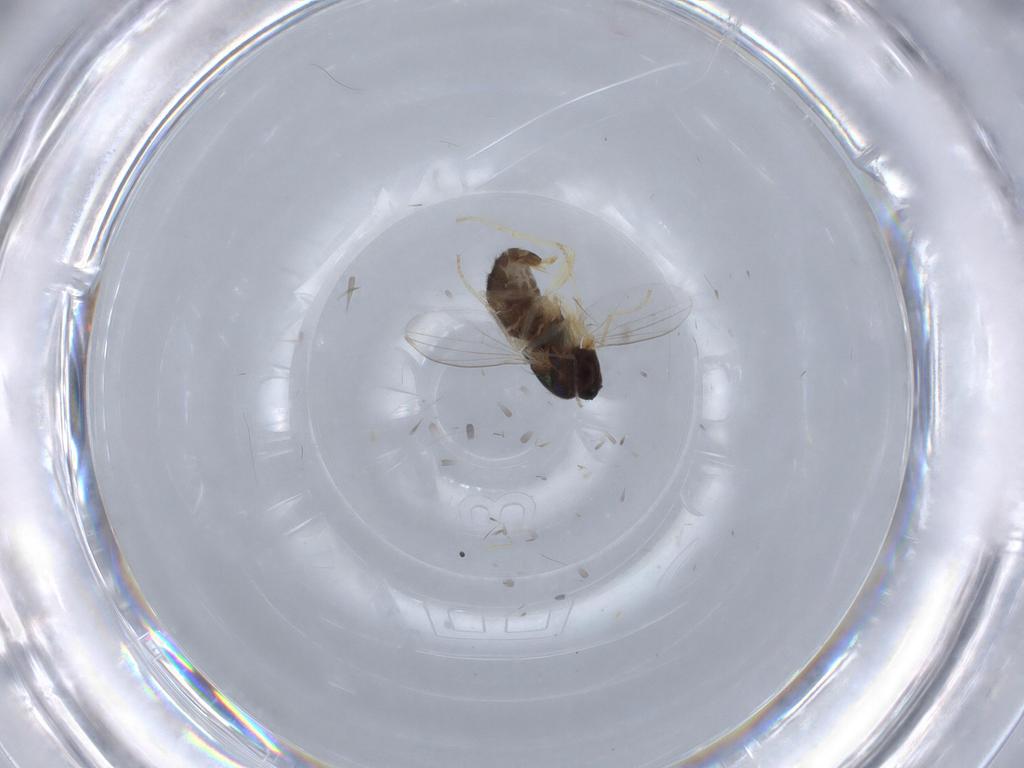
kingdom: Animalia
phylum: Arthropoda
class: Insecta
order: Diptera
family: Dolichopodidae
